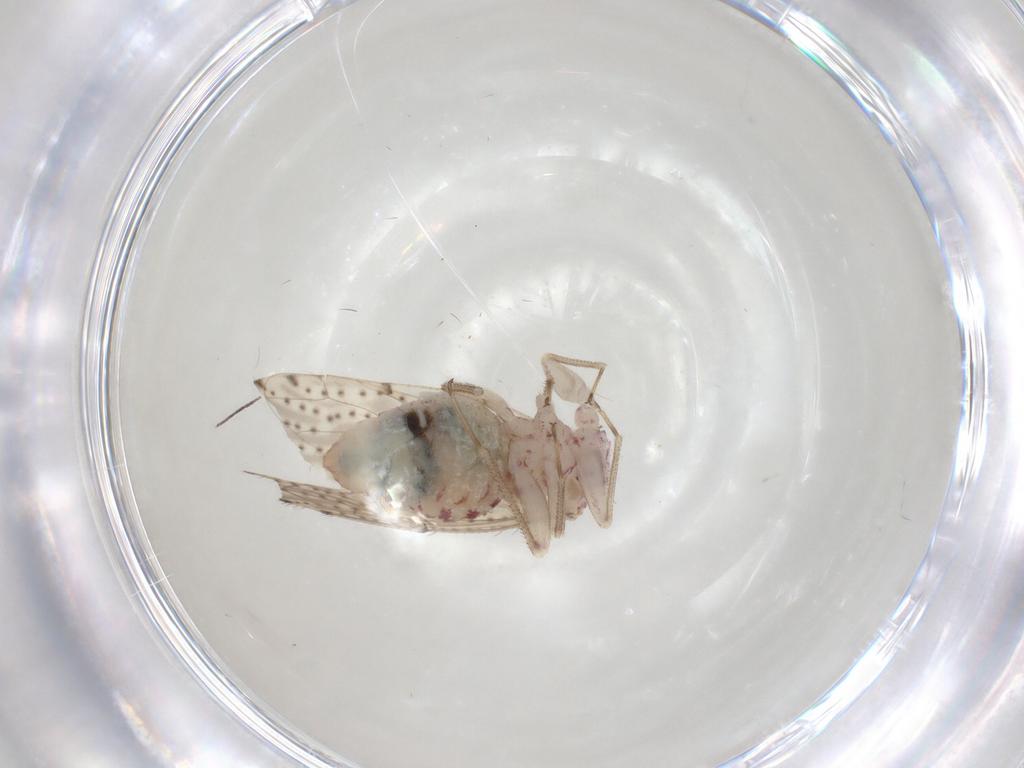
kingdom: Animalia
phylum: Arthropoda
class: Insecta
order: Psocodea
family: Philotarsidae
